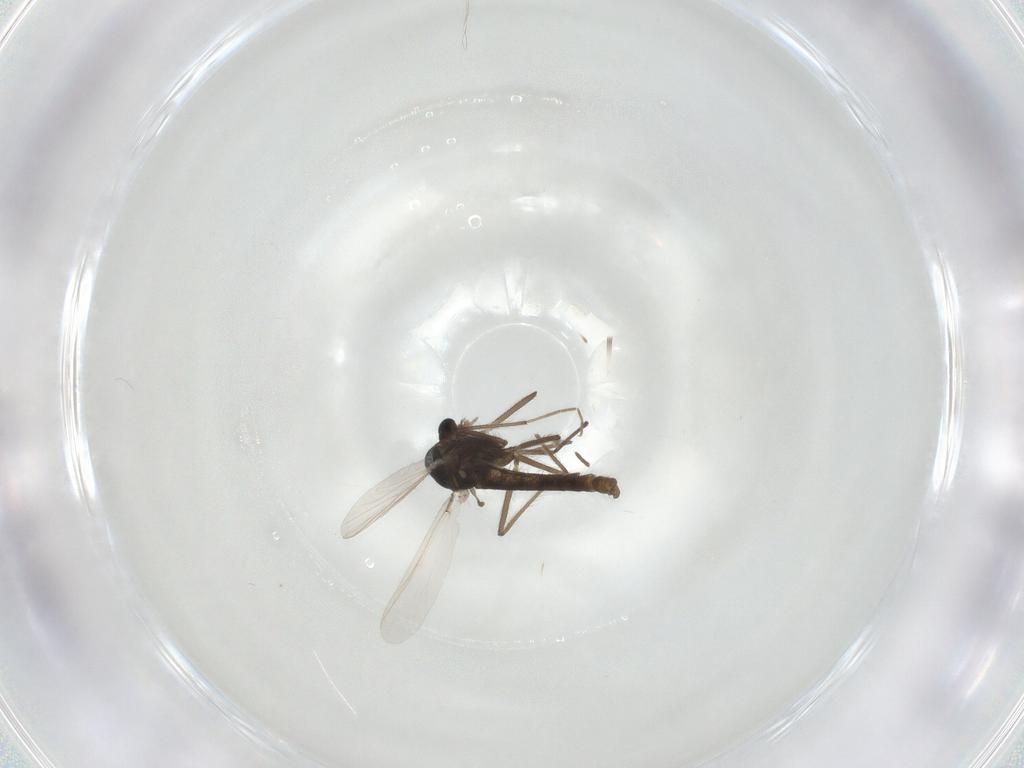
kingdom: Animalia
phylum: Arthropoda
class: Insecta
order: Diptera
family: Chironomidae
